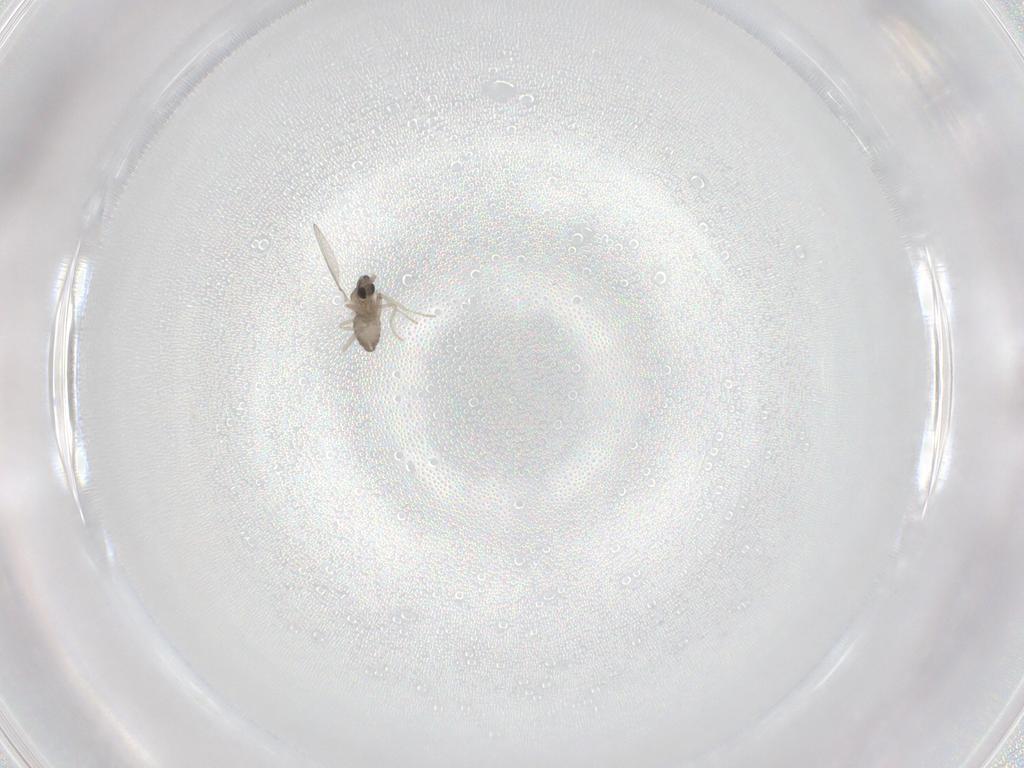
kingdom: Animalia
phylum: Arthropoda
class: Insecta
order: Diptera
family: Cecidomyiidae
